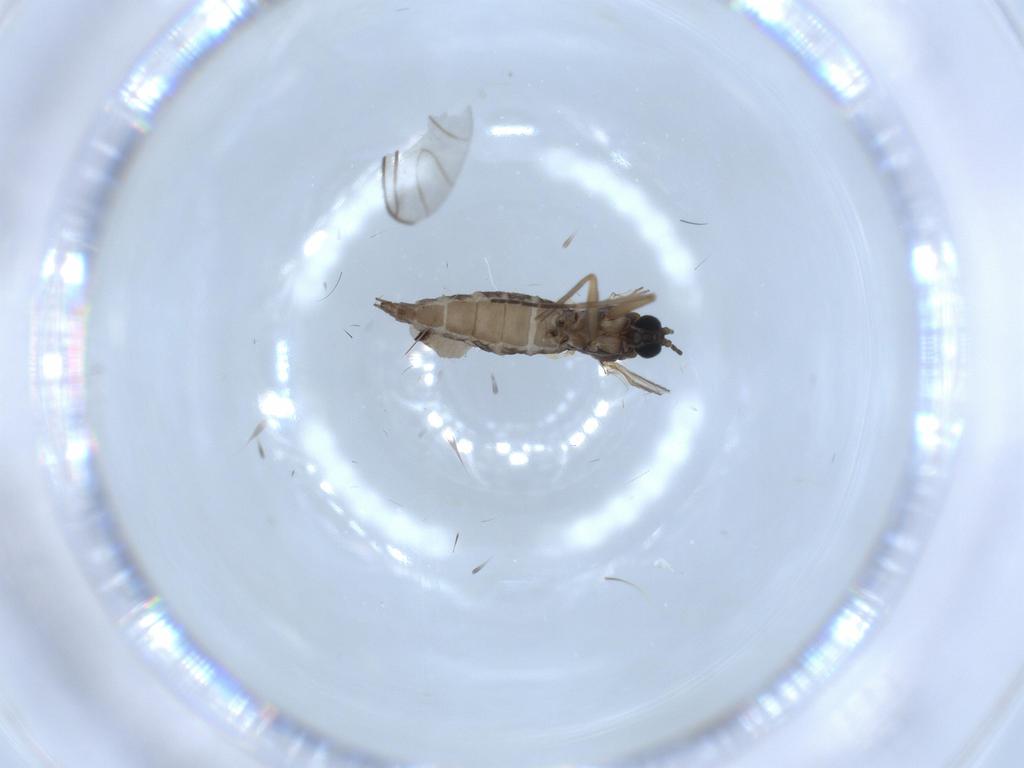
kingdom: Animalia
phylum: Arthropoda
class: Insecta
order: Diptera
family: Sciaridae
